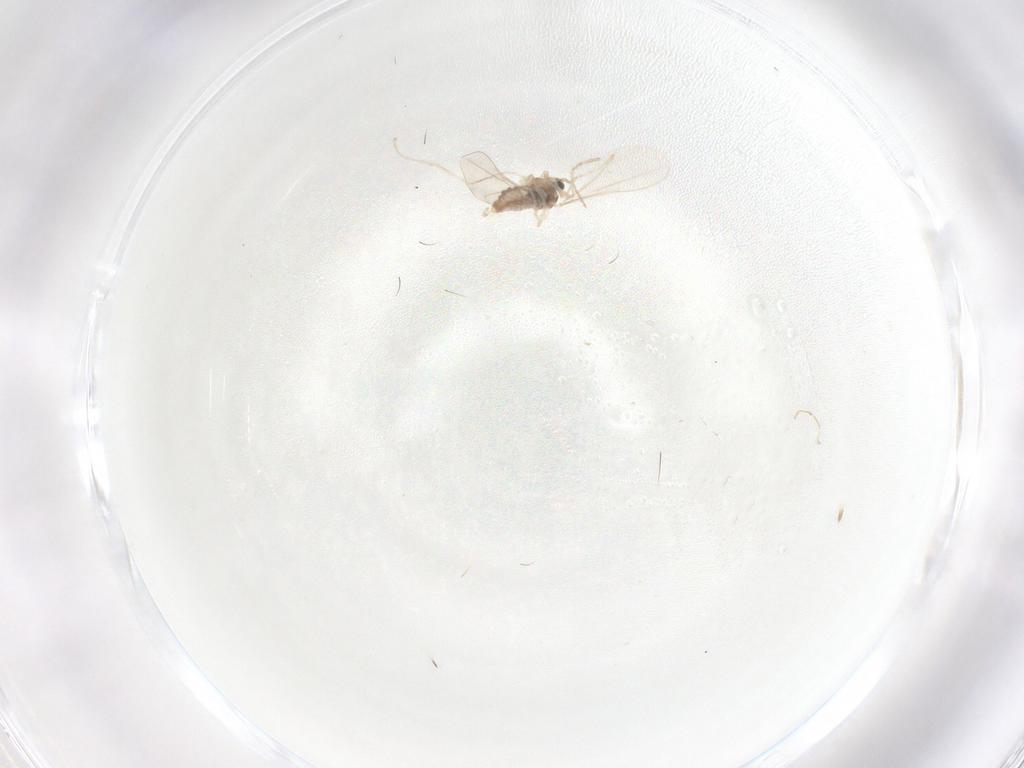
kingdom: Animalia
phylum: Arthropoda
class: Insecta
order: Diptera
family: Cecidomyiidae
